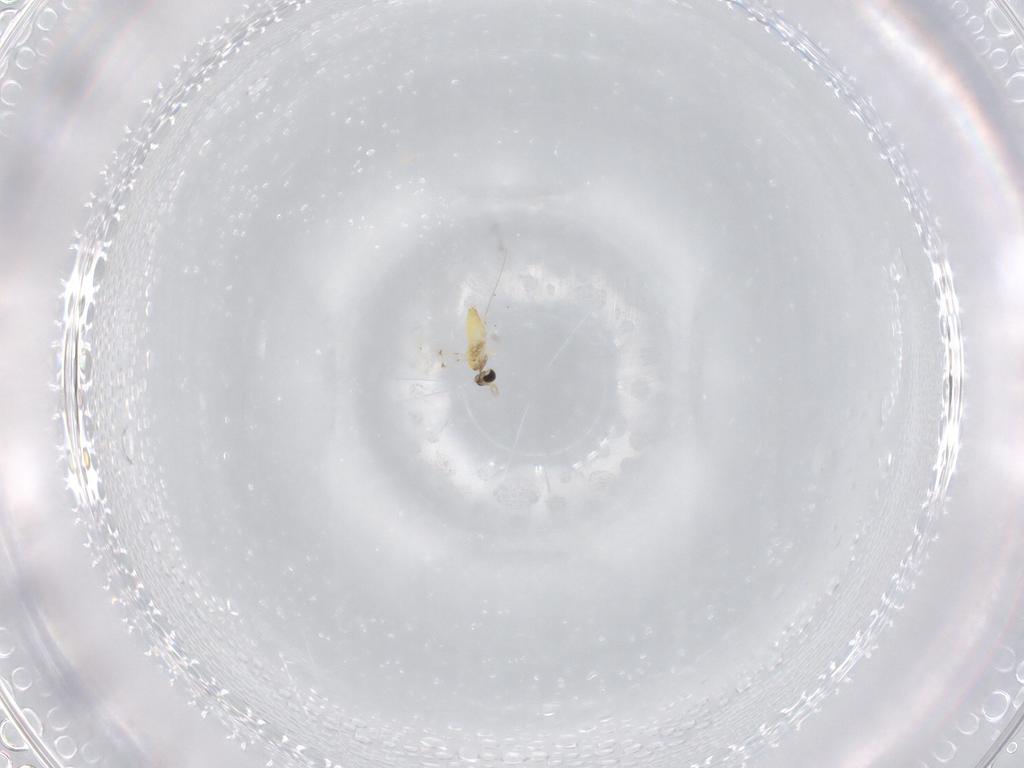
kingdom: Animalia
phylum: Arthropoda
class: Insecta
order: Hymenoptera
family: Trichogrammatidae
